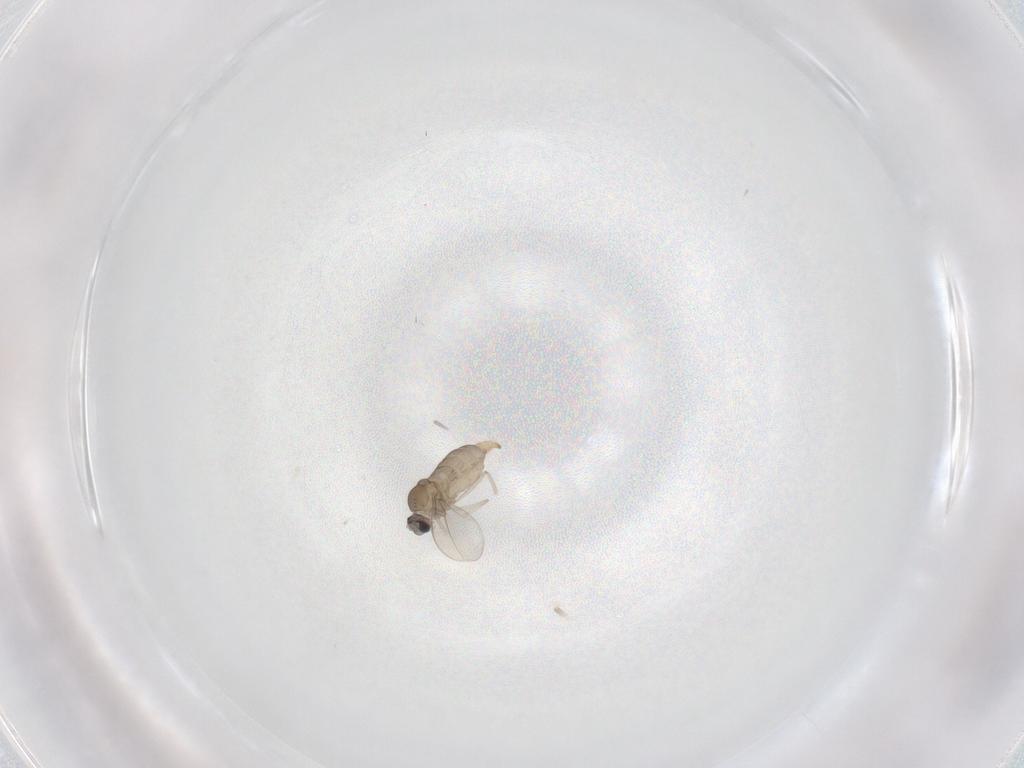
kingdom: Animalia
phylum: Arthropoda
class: Insecta
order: Diptera
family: Cecidomyiidae
